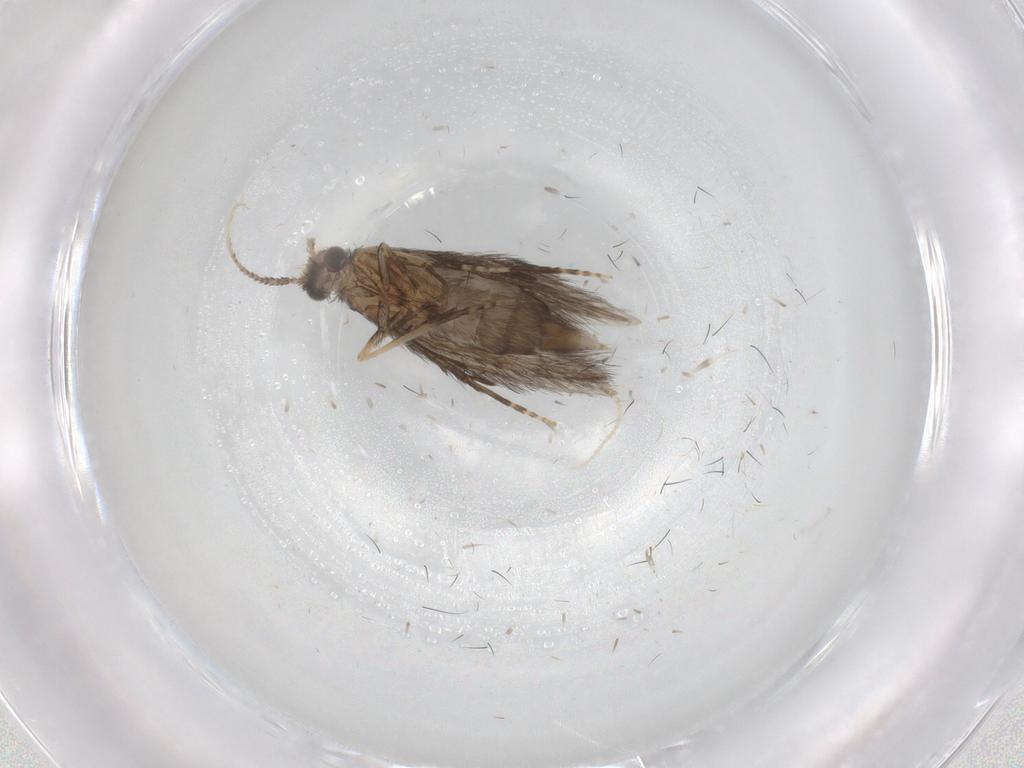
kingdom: Animalia
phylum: Arthropoda
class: Insecta
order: Trichoptera
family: Hydroptilidae
